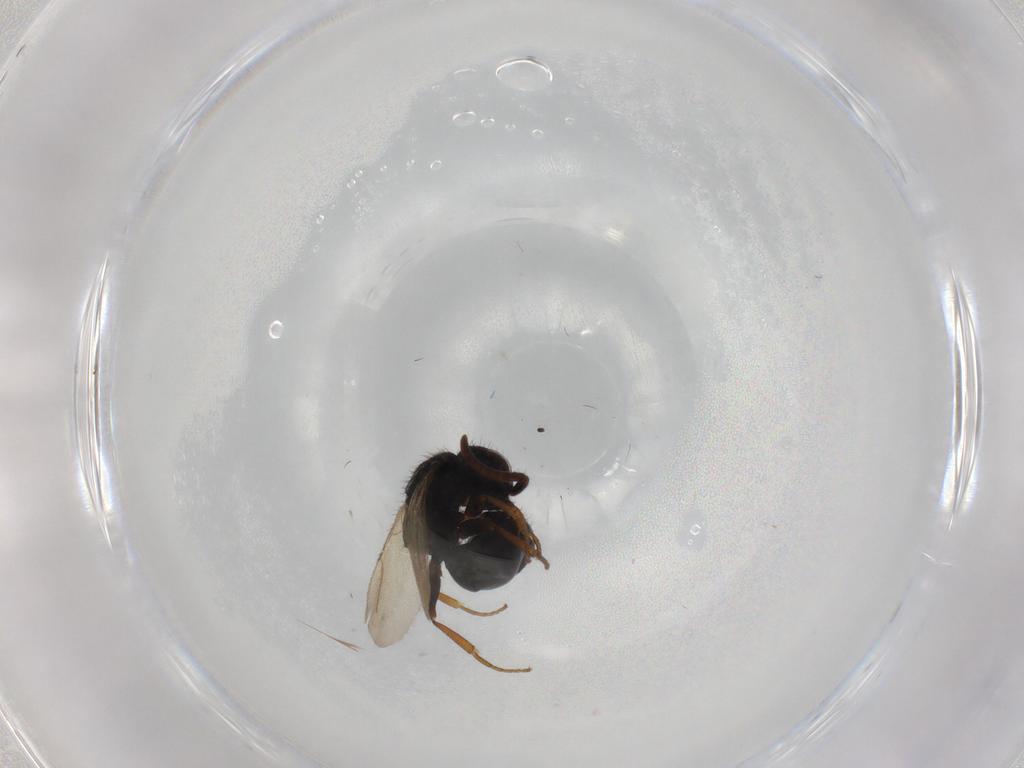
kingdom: Animalia
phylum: Arthropoda
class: Insecta
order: Hymenoptera
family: Bethylidae
